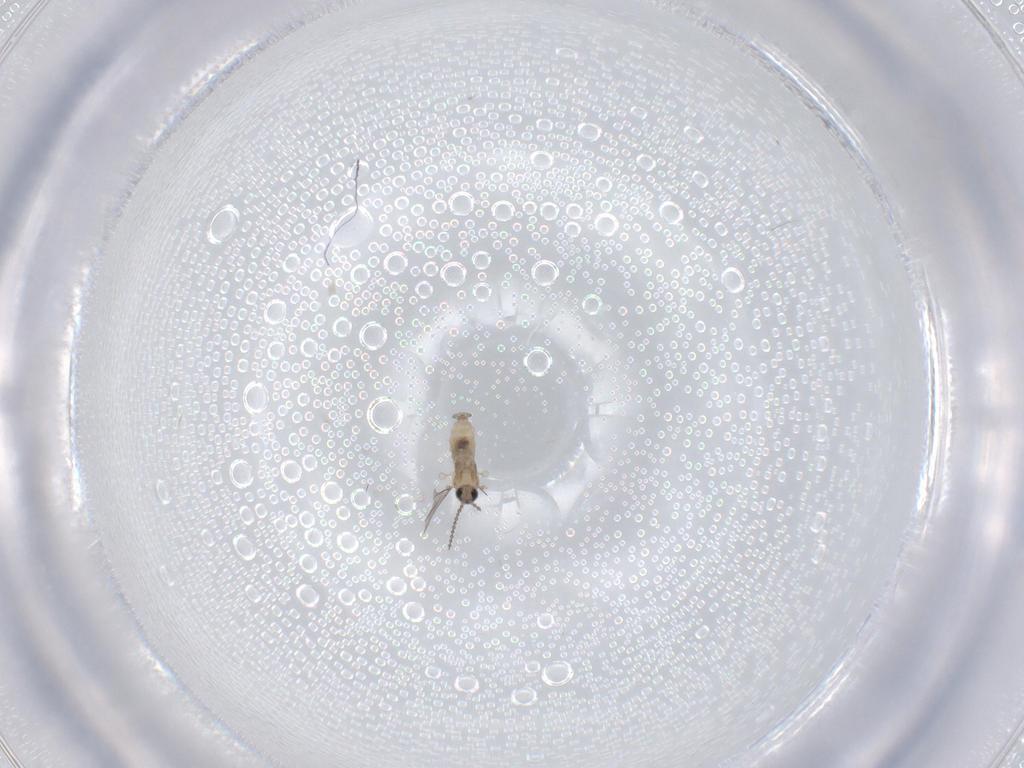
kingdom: Animalia
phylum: Arthropoda
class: Insecta
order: Diptera
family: Cecidomyiidae
